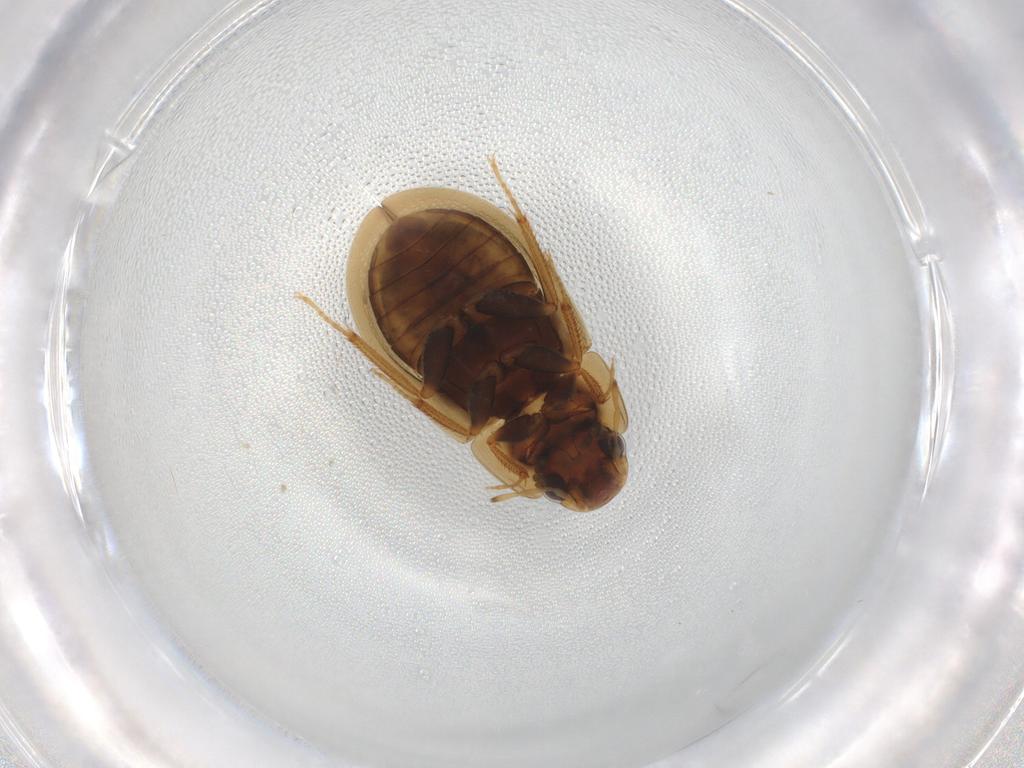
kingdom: Animalia
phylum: Arthropoda
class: Insecta
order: Coleoptera
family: Hydrophilidae
